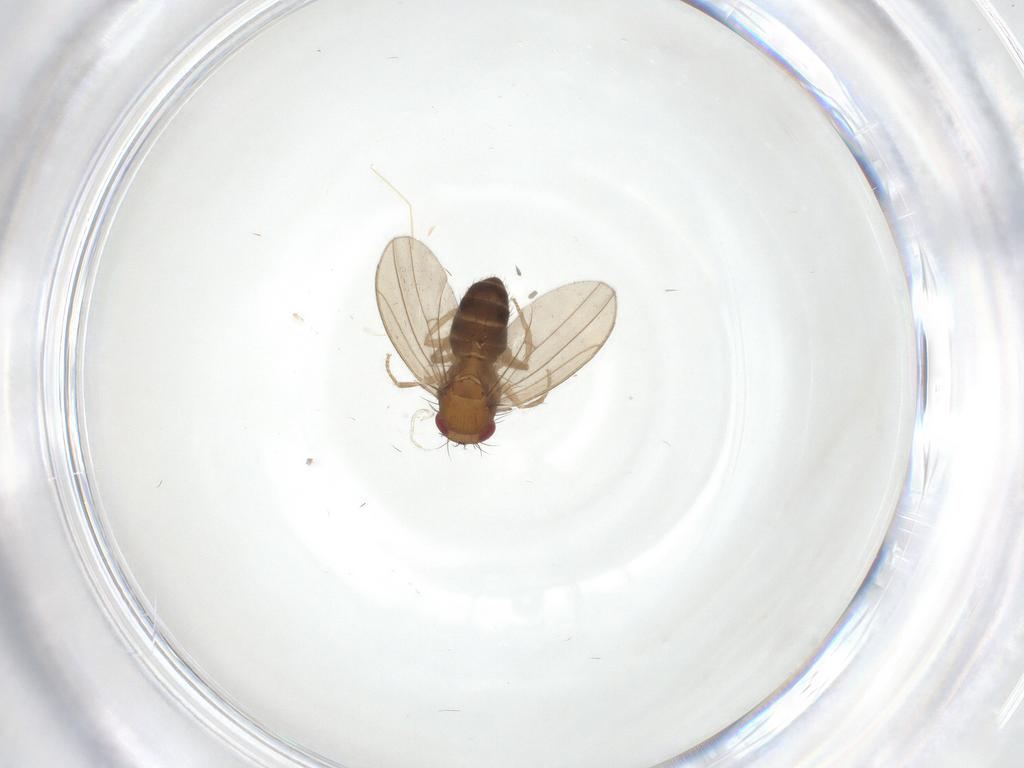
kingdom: Animalia
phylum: Arthropoda
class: Insecta
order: Diptera
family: Drosophilidae
